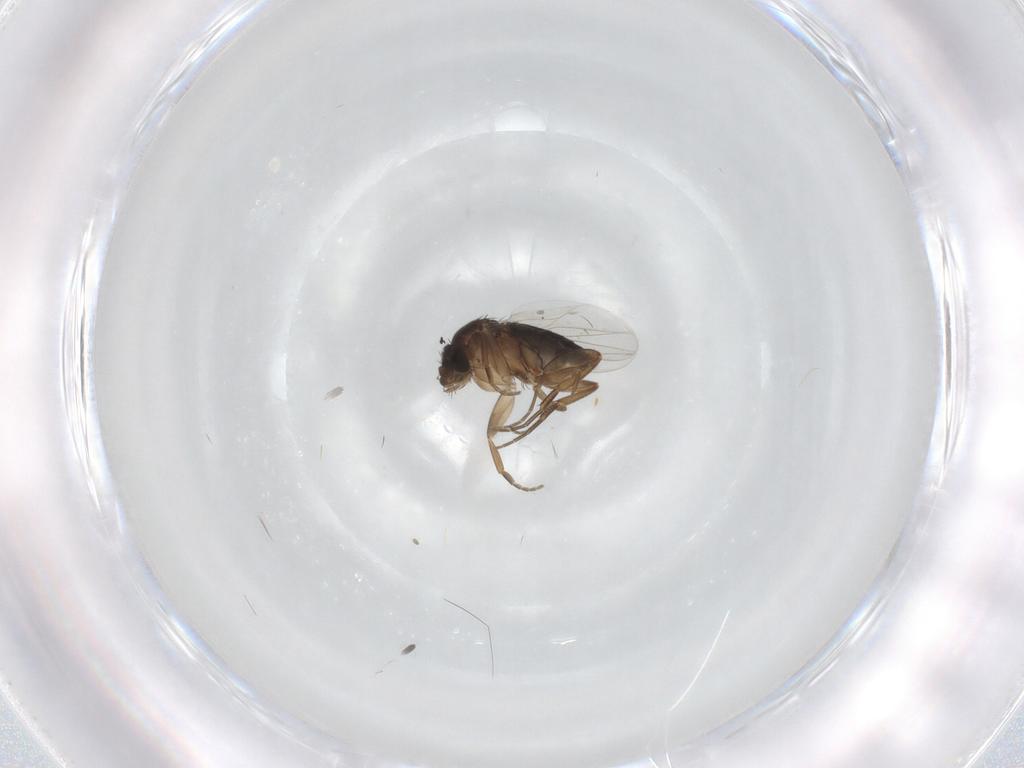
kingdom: Animalia
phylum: Arthropoda
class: Insecta
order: Diptera
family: Phoridae
